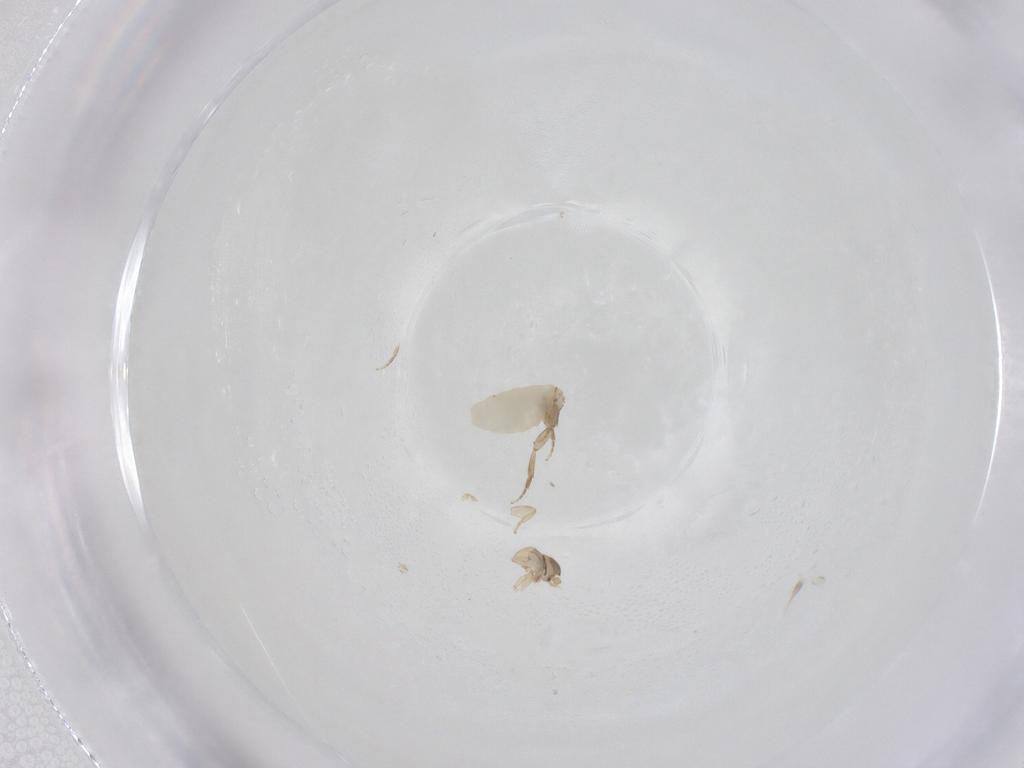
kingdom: Animalia
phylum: Arthropoda
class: Insecta
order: Diptera
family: Phoridae
